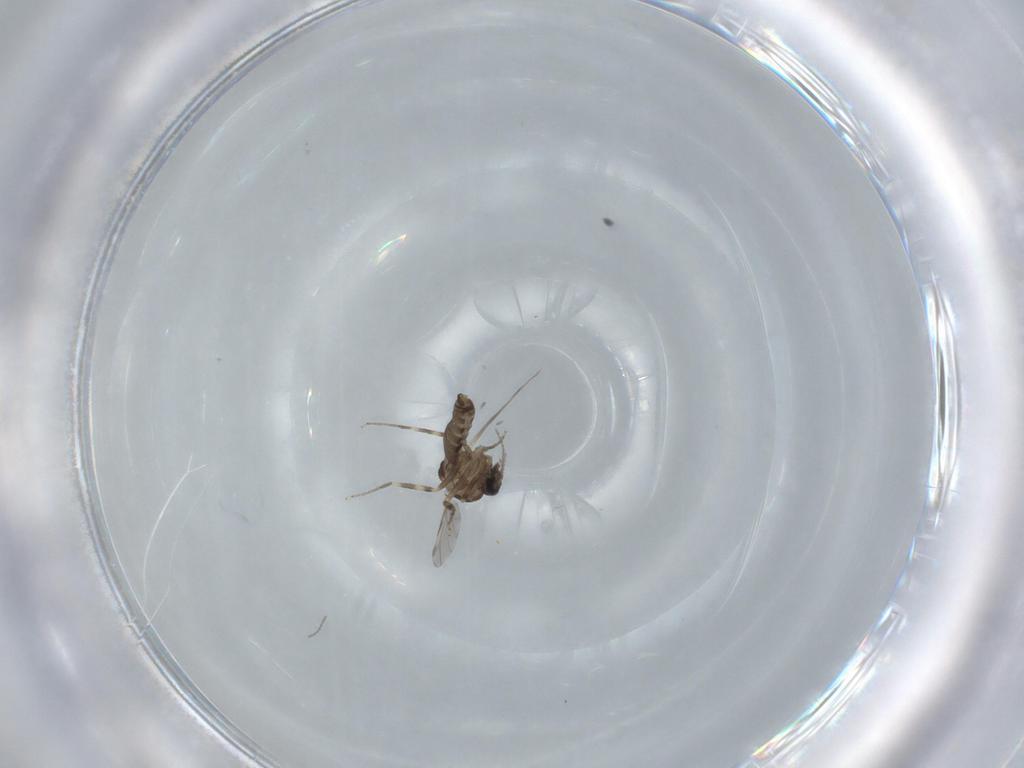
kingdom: Animalia
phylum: Arthropoda
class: Insecta
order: Diptera
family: Ceratopogonidae
